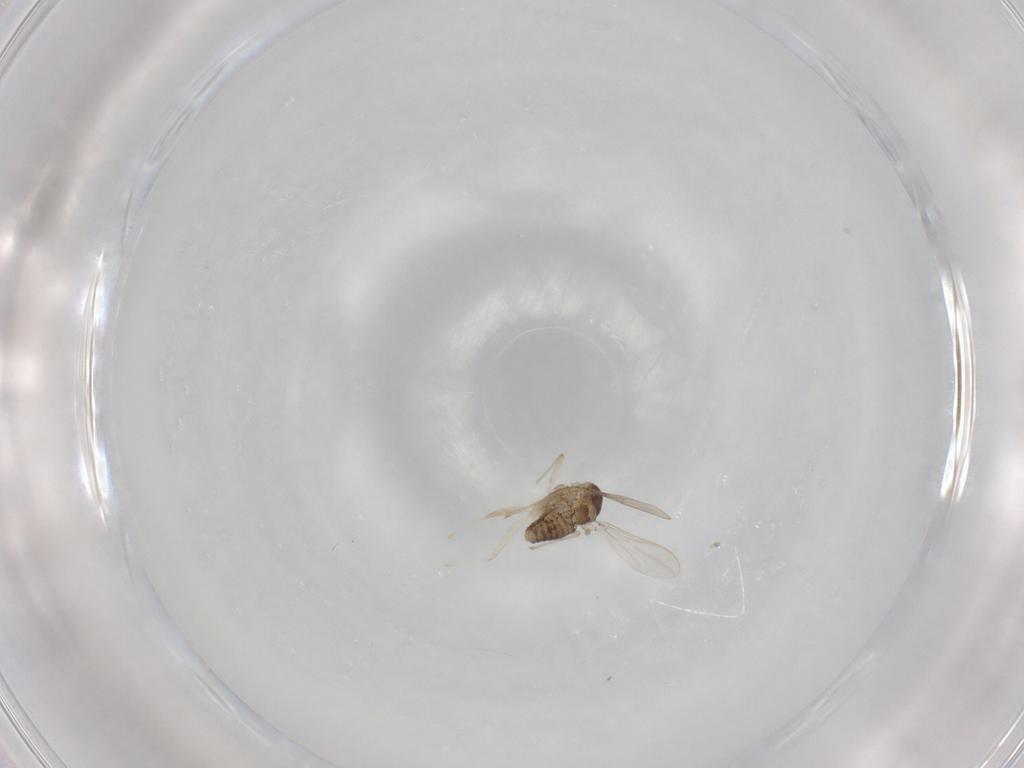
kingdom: Animalia
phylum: Arthropoda
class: Insecta
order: Diptera
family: Chironomidae
